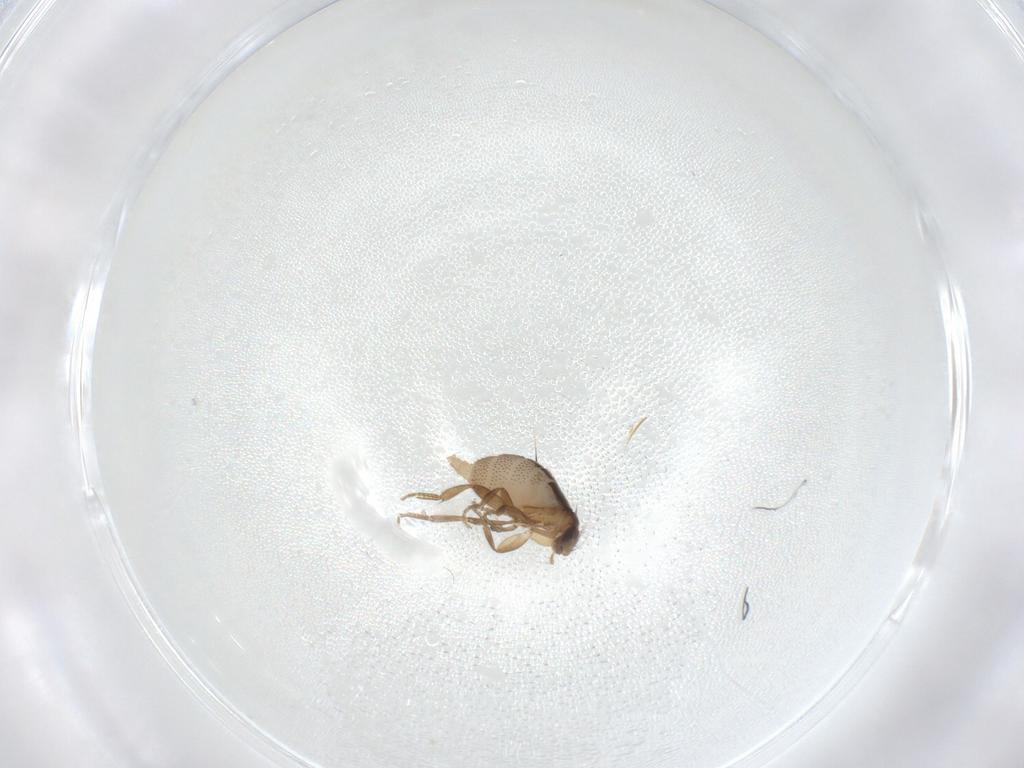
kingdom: Animalia
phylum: Arthropoda
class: Insecta
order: Diptera
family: Phoridae
